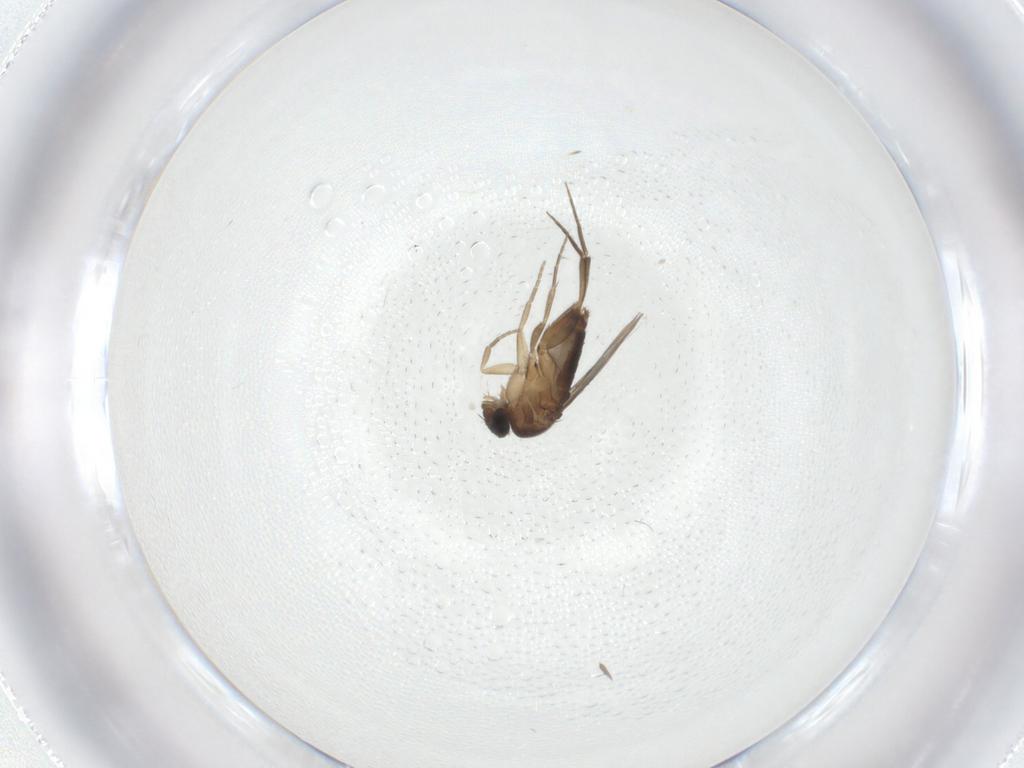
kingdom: Animalia
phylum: Arthropoda
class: Insecta
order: Diptera
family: Phoridae
